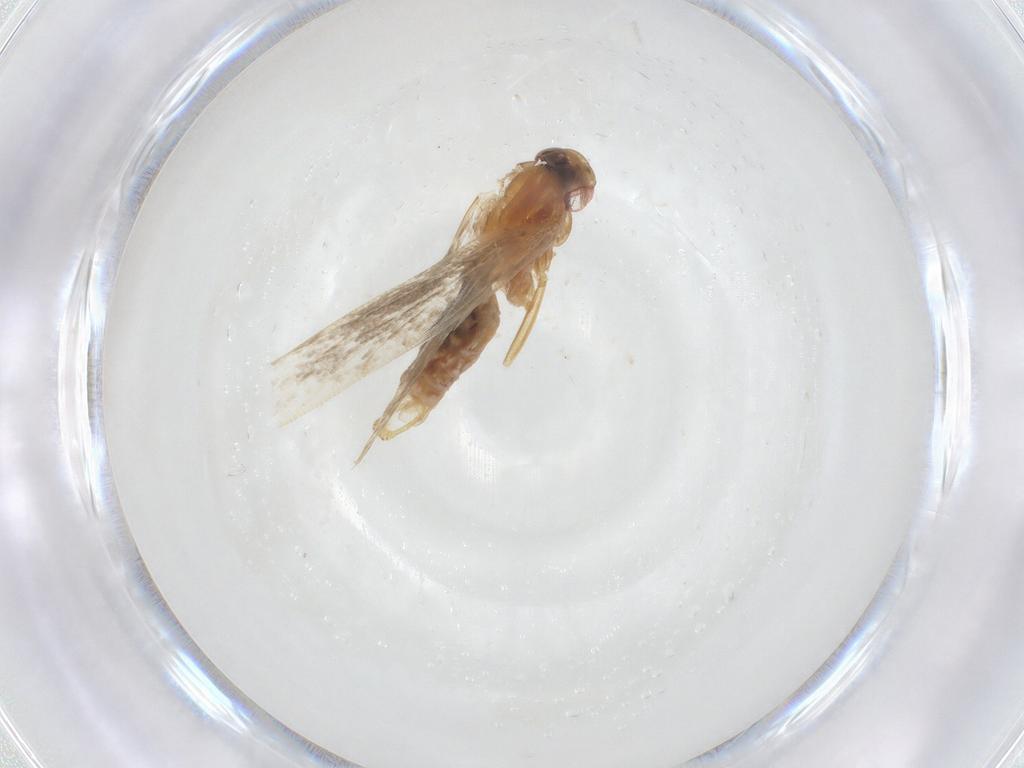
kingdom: Animalia
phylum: Arthropoda
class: Insecta
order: Lepidoptera
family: Cosmopterigidae
